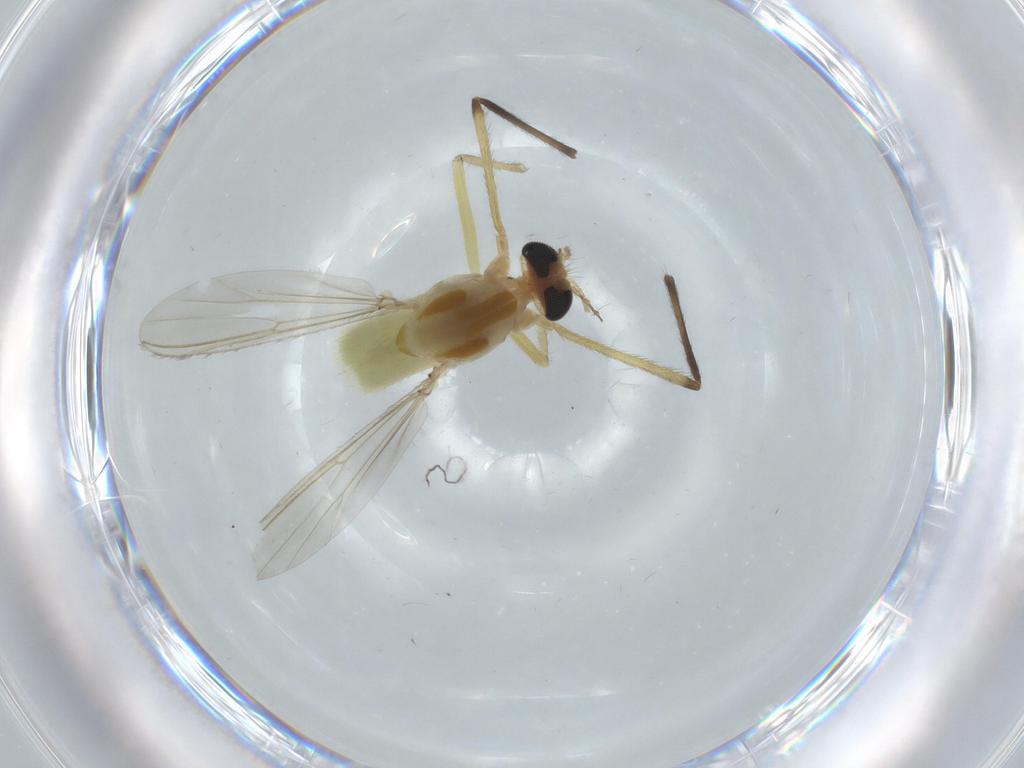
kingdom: Animalia
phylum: Arthropoda
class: Insecta
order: Diptera
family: Chironomidae
